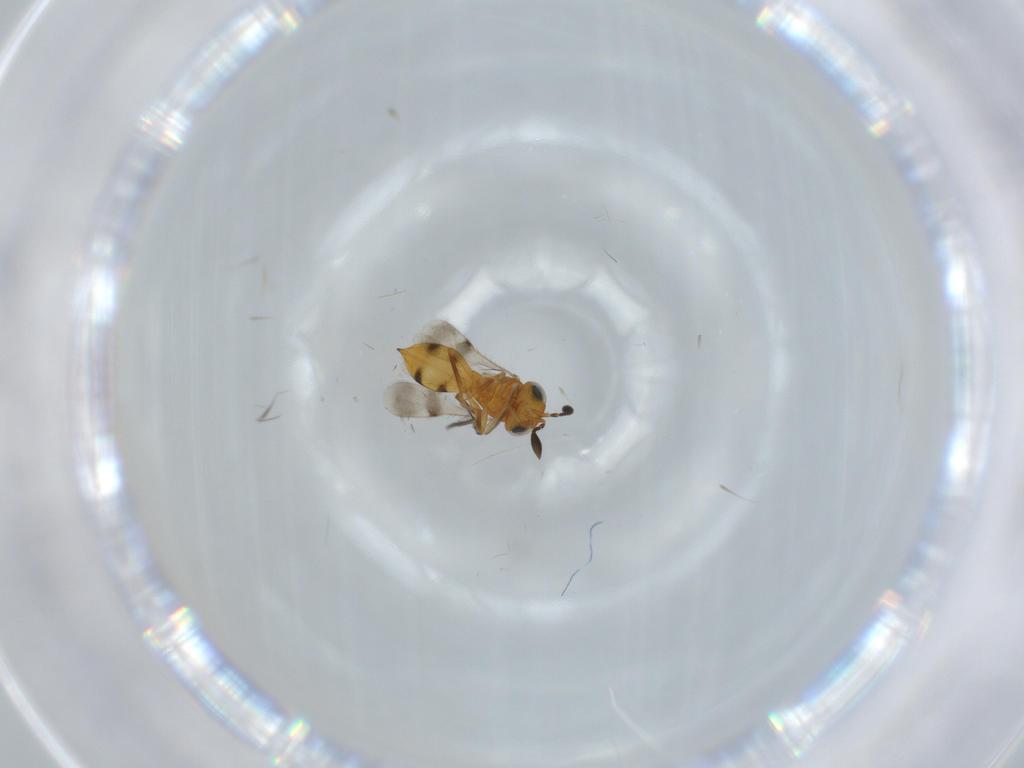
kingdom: Animalia
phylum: Arthropoda
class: Insecta
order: Hymenoptera
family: Scelionidae
